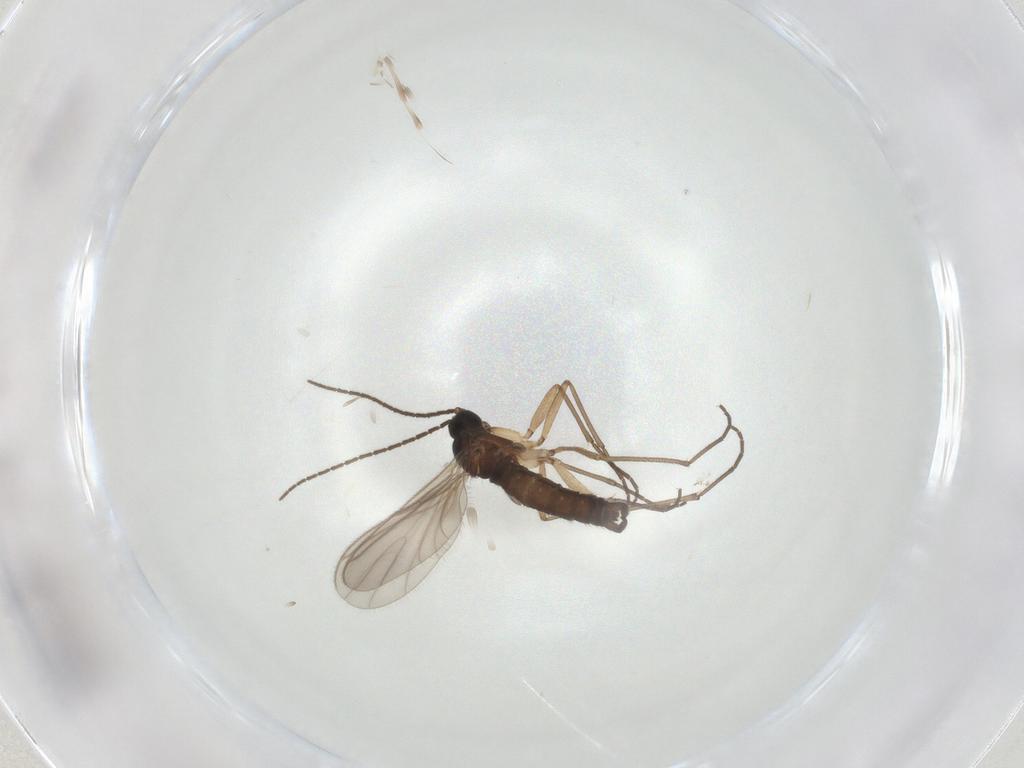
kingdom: Animalia
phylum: Arthropoda
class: Insecta
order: Diptera
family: Sciaridae
